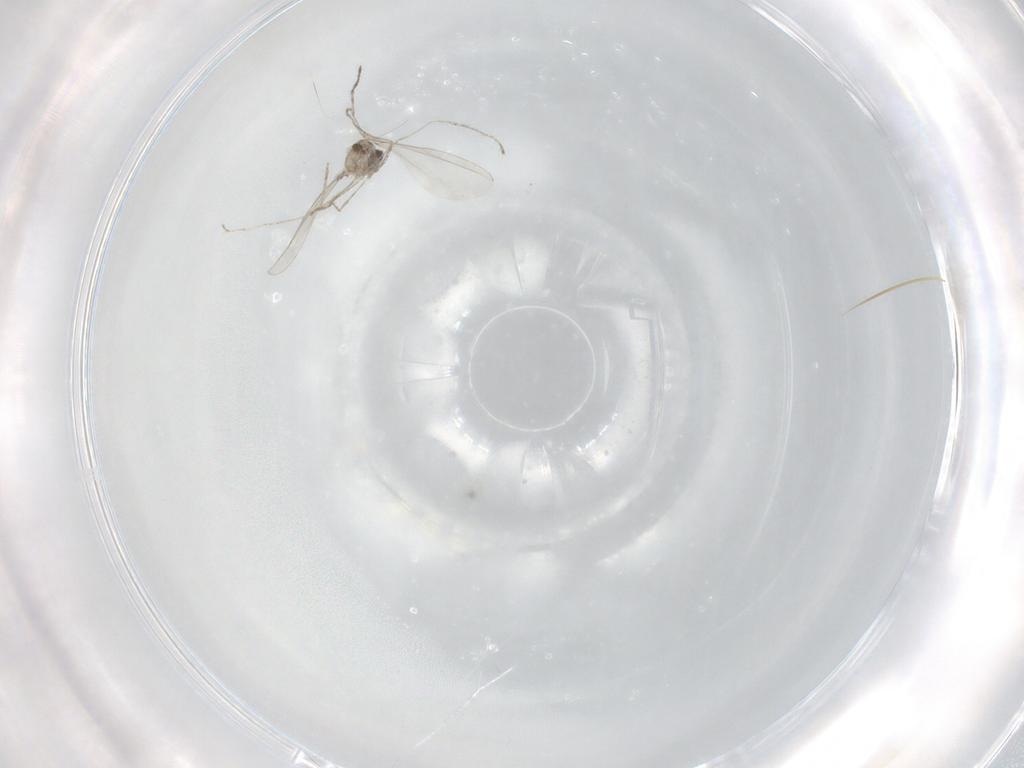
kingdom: Animalia
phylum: Arthropoda
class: Insecta
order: Diptera
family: Cecidomyiidae
